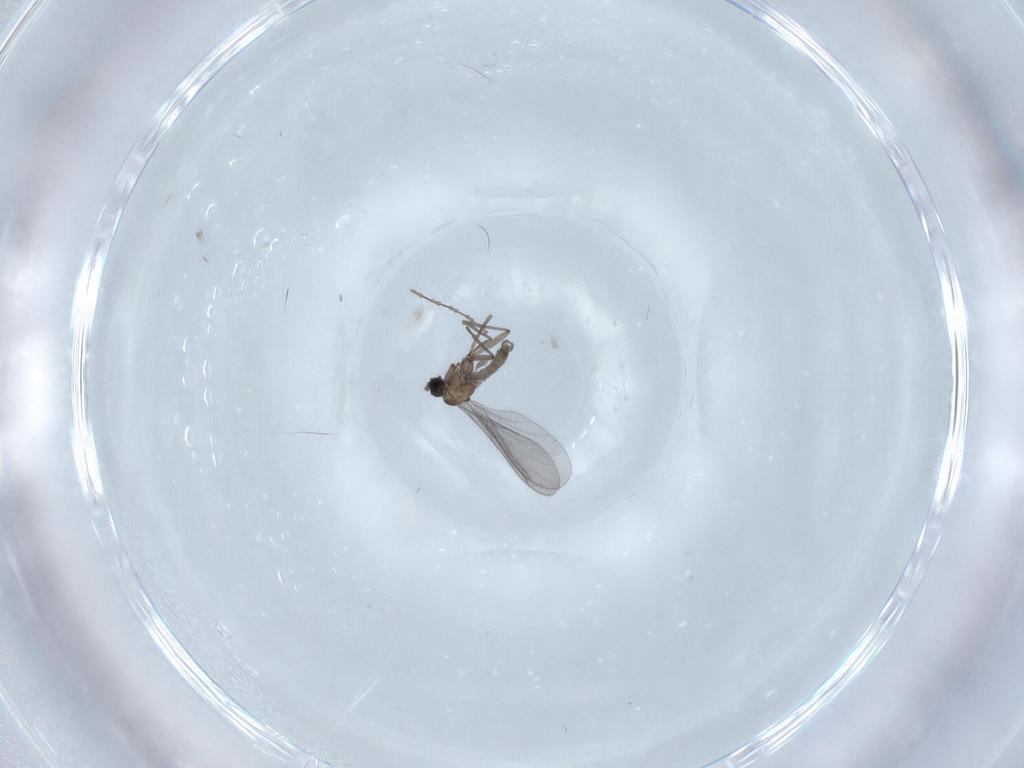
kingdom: Animalia
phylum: Arthropoda
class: Insecta
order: Diptera
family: Sciaridae
